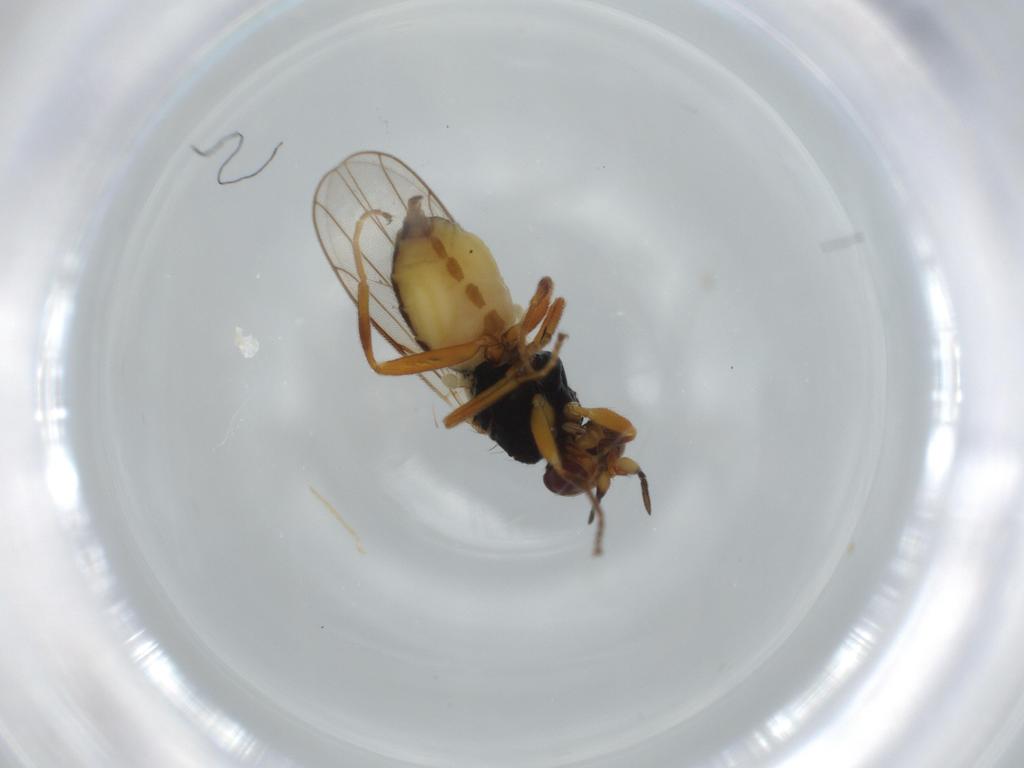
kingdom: Animalia
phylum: Arthropoda
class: Insecta
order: Diptera
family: Chloropidae
